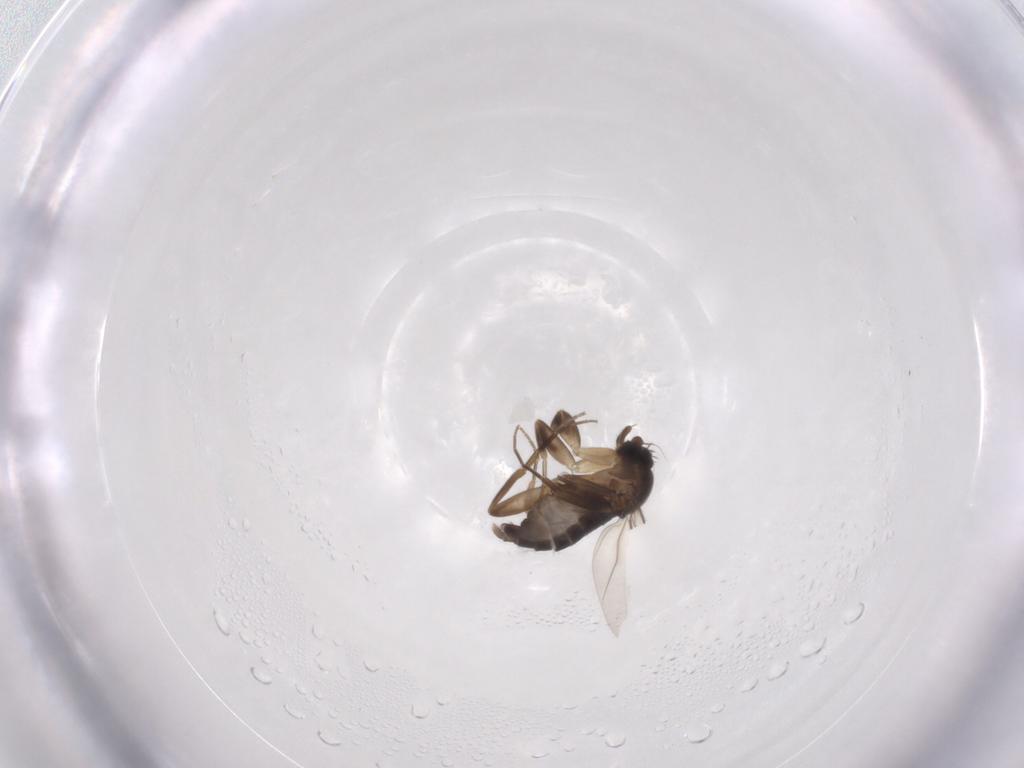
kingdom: Animalia
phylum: Arthropoda
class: Insecta
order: Diptera
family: Phoridae
